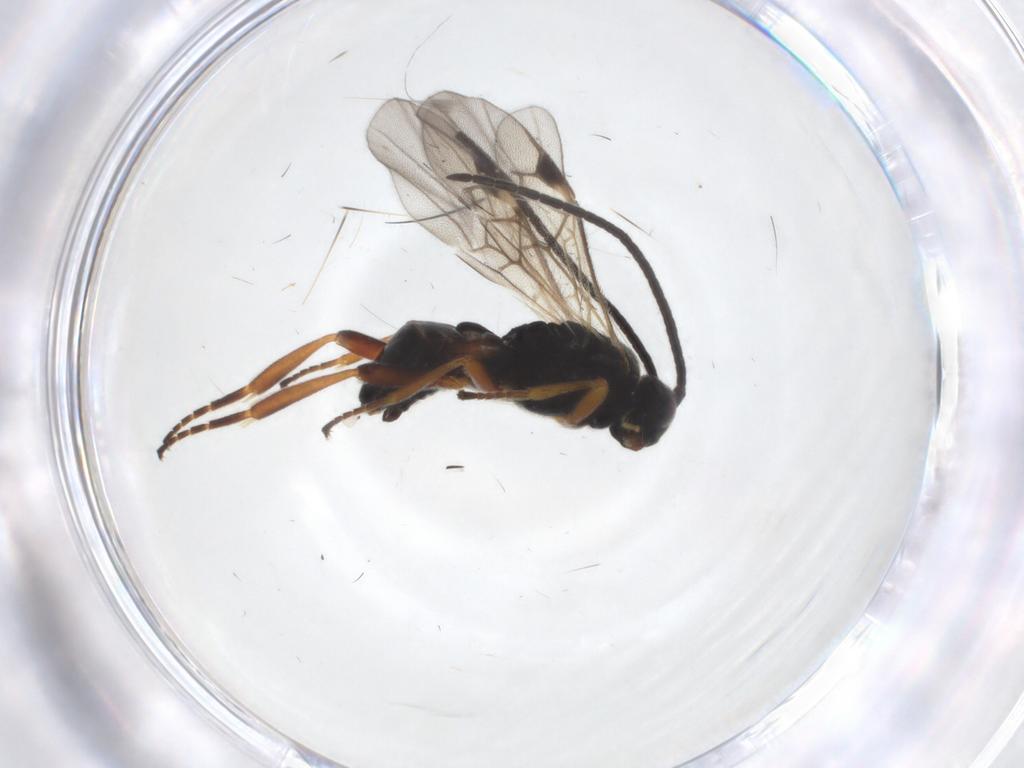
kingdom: Animalia
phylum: Arthropoda
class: Insecta
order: Hymenoptera
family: Braconidae
